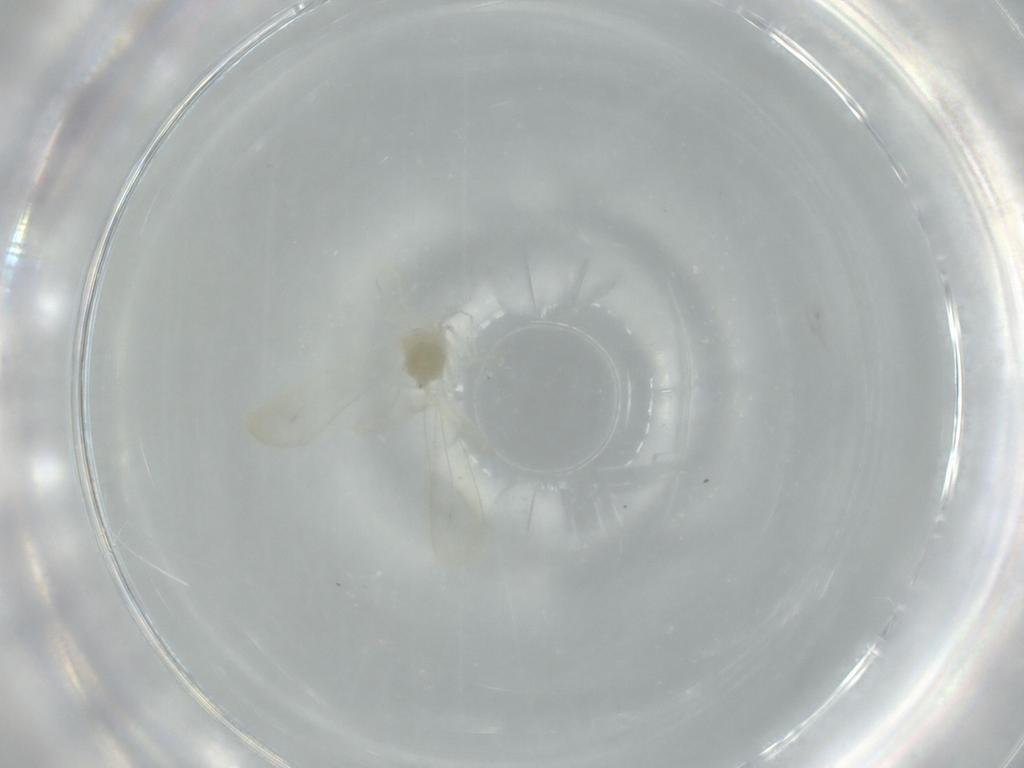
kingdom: Animalia
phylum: Arthropoda
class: Insecta
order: Hemiptera
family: Aleyrodidae
